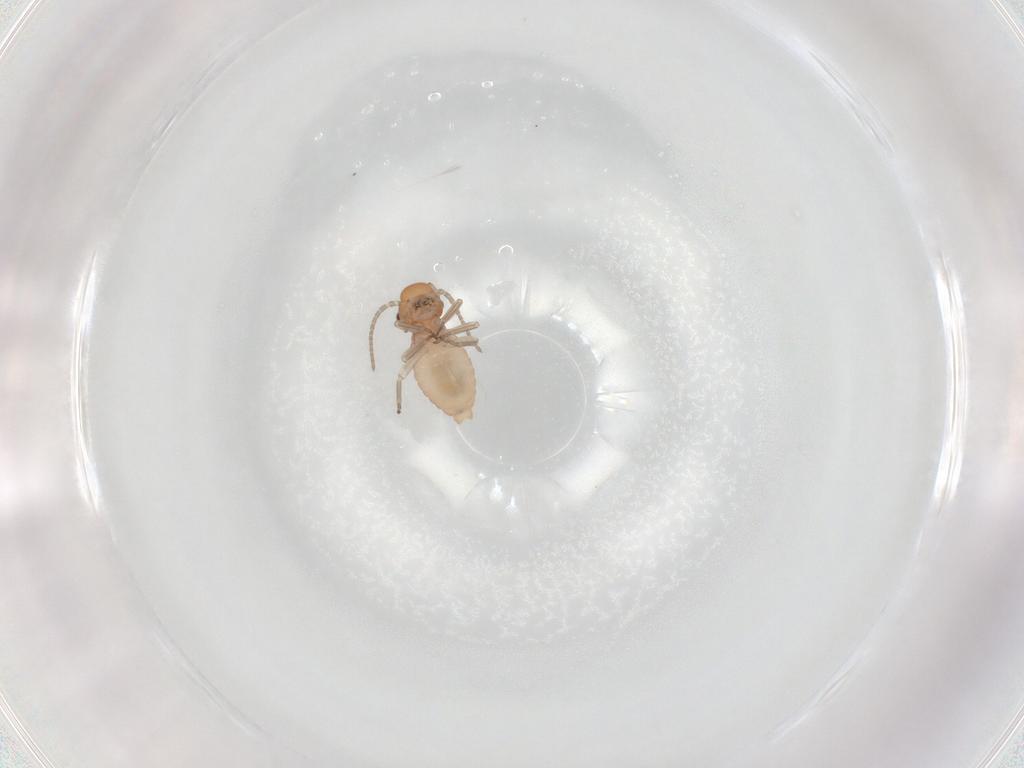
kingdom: Animalia
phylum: Arthropoda
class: Insecta
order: Psocodea
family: Caeciliusidae
